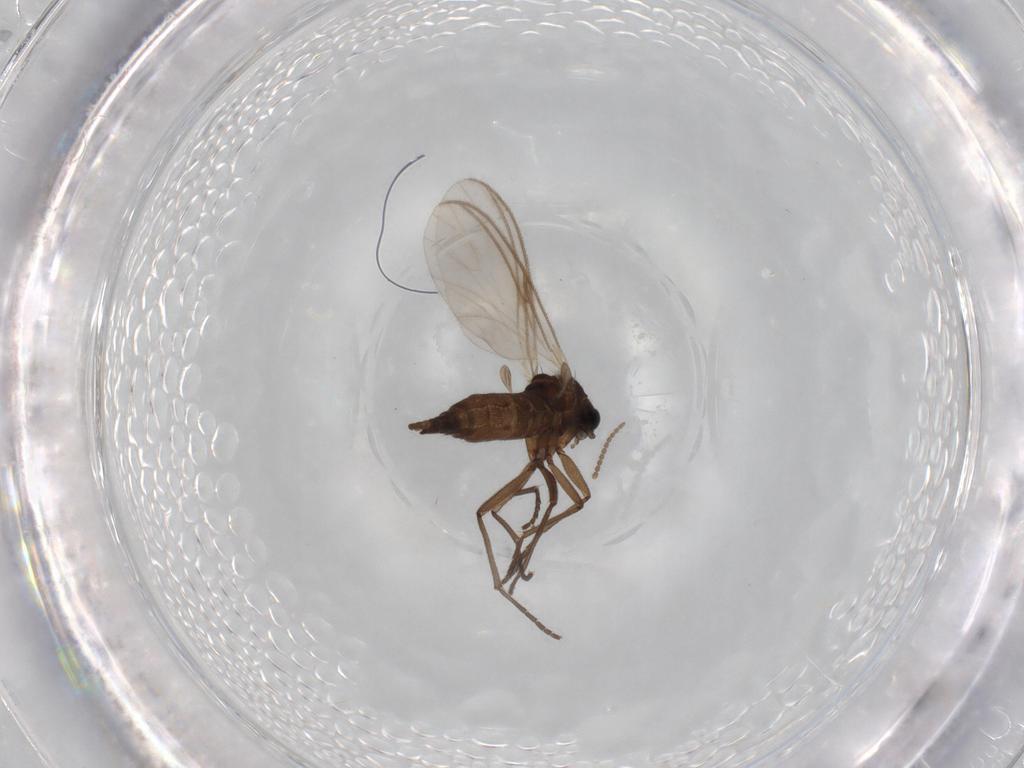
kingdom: Animalia
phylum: Arthropoda
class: Insecta
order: Diptera
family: Sciaridae
